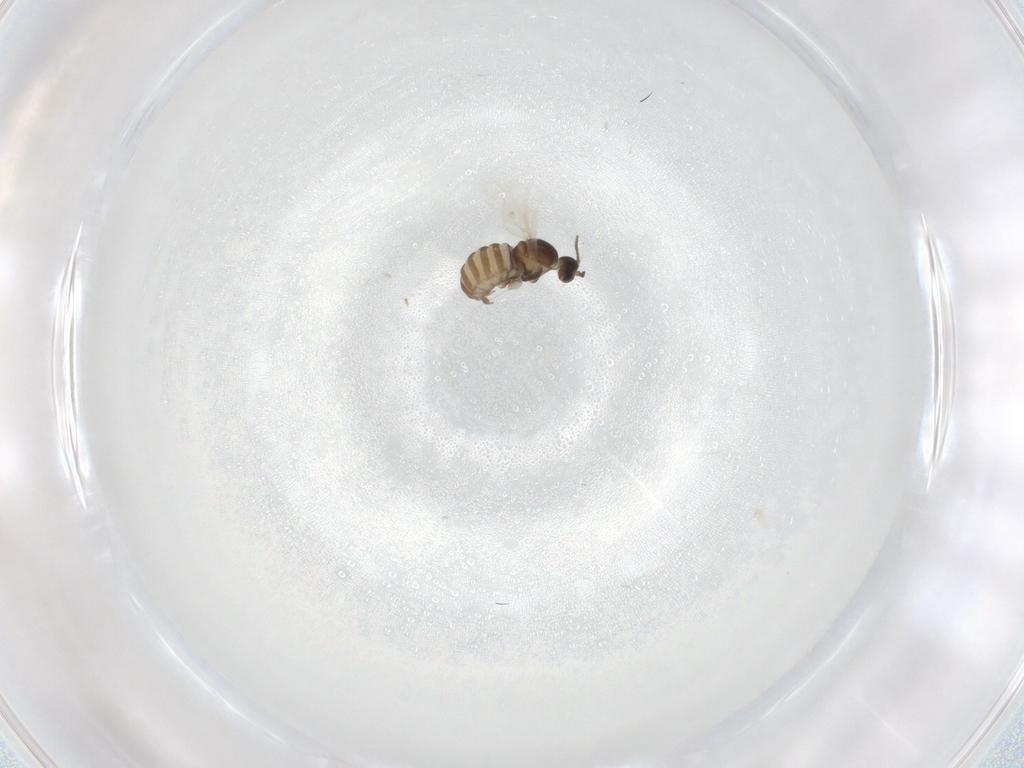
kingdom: Animalia
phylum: Arthropoda
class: Insecta
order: Diptera
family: Cecidomyiidae
